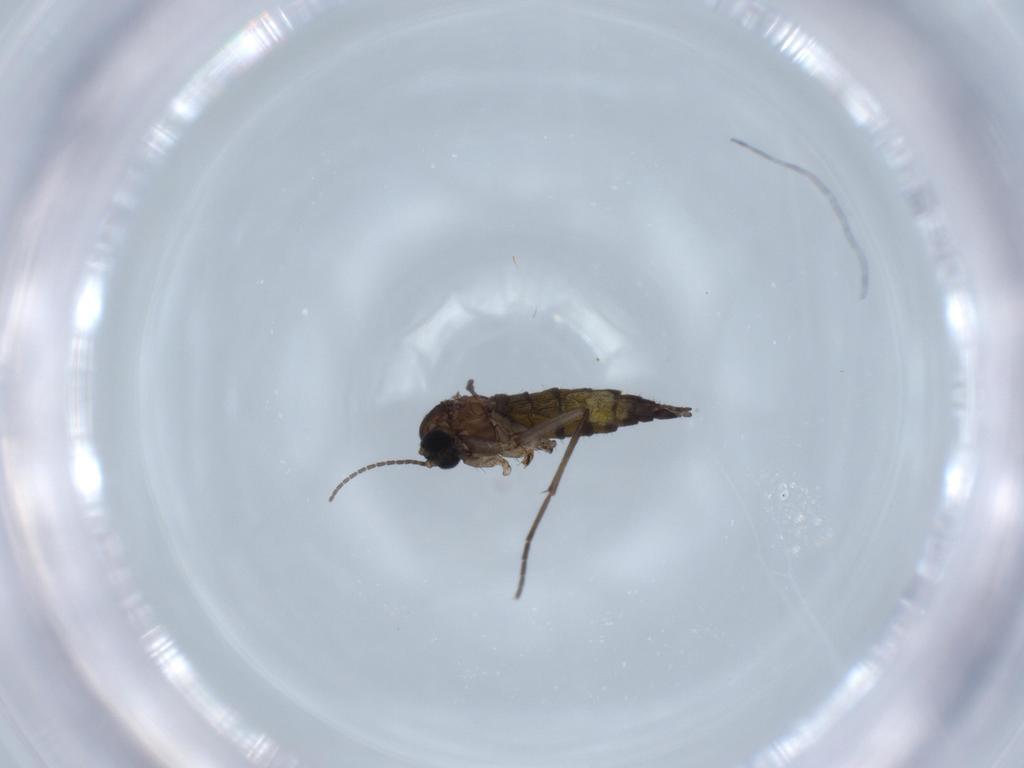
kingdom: Animalia
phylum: Arthropoda
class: Insecta
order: Diptera
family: Sciaridae
